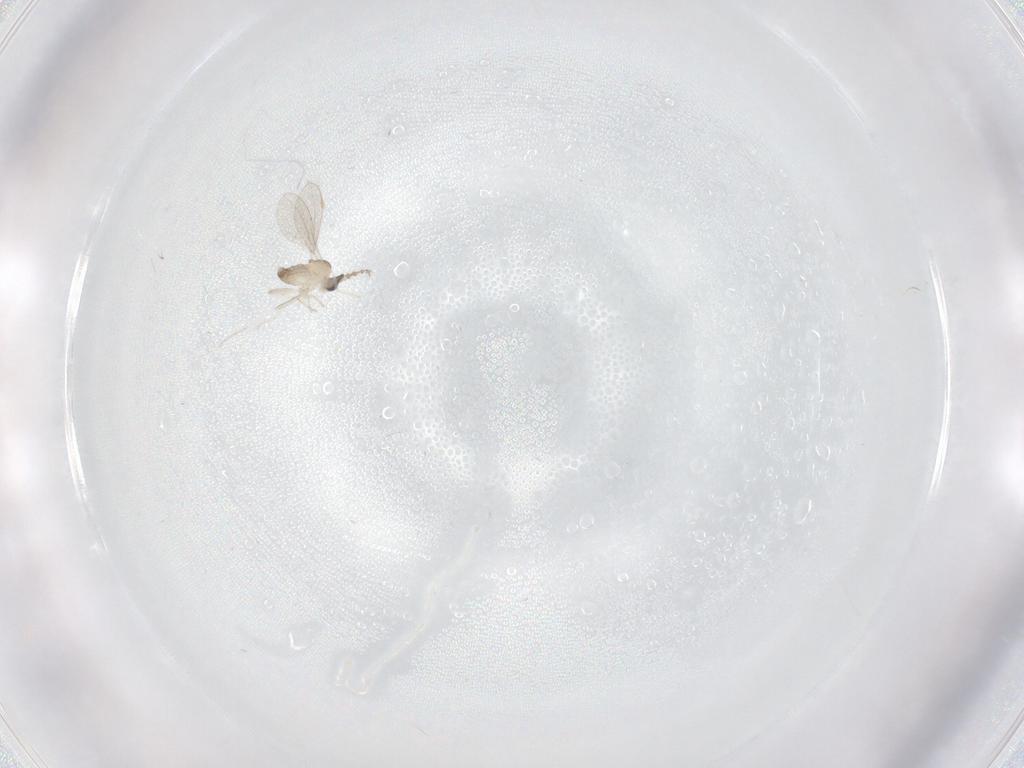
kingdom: Animalia
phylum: Arthropoda
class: Insecta
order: Diptera
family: Cecidomyiidae
